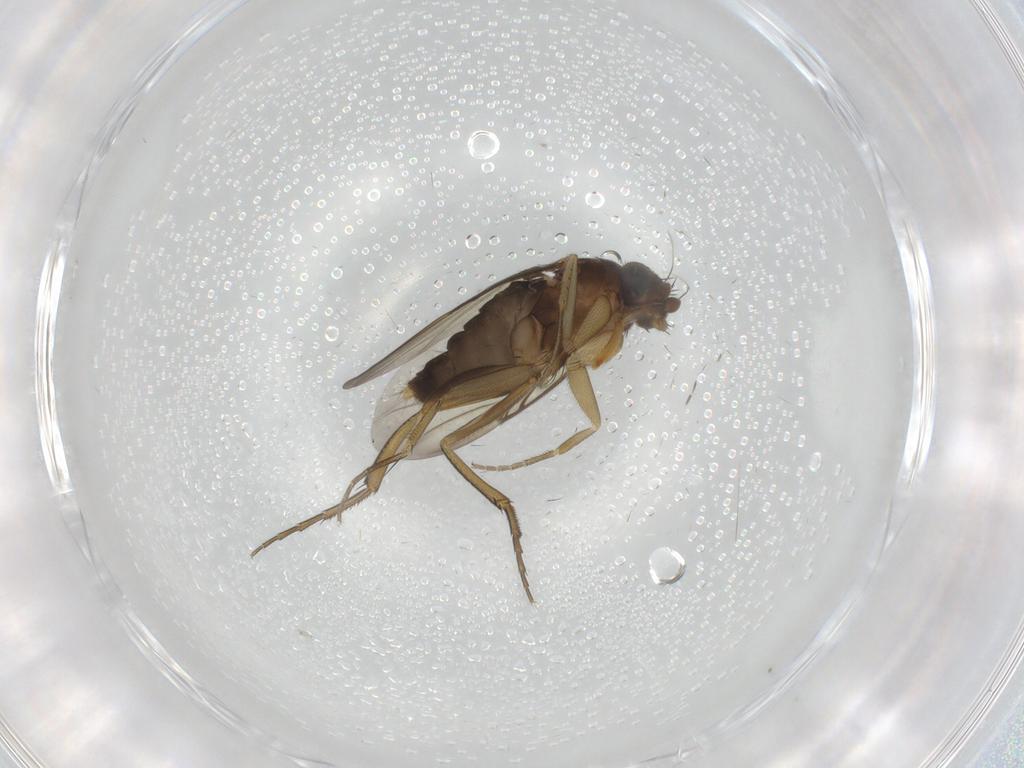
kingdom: Animalia
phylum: Arthropoda
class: Insecta
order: Diptera
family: Phoridae
